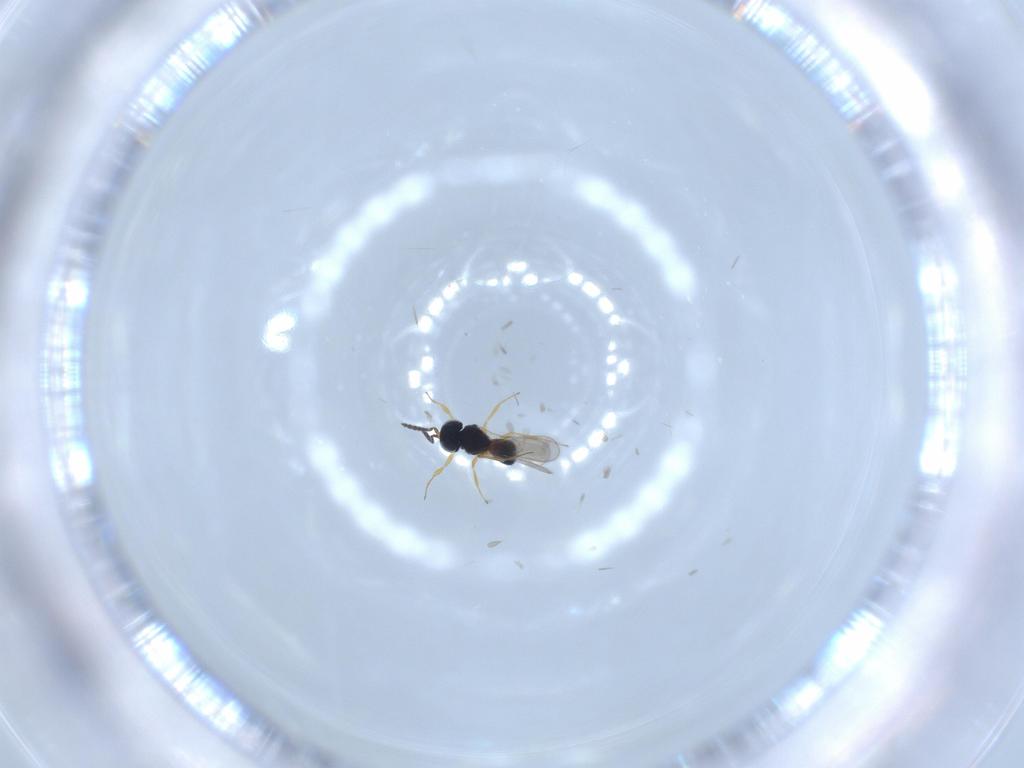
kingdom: Animalia
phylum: Arthropoda
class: Insecta
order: Hymenoptera
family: Scelionidae
